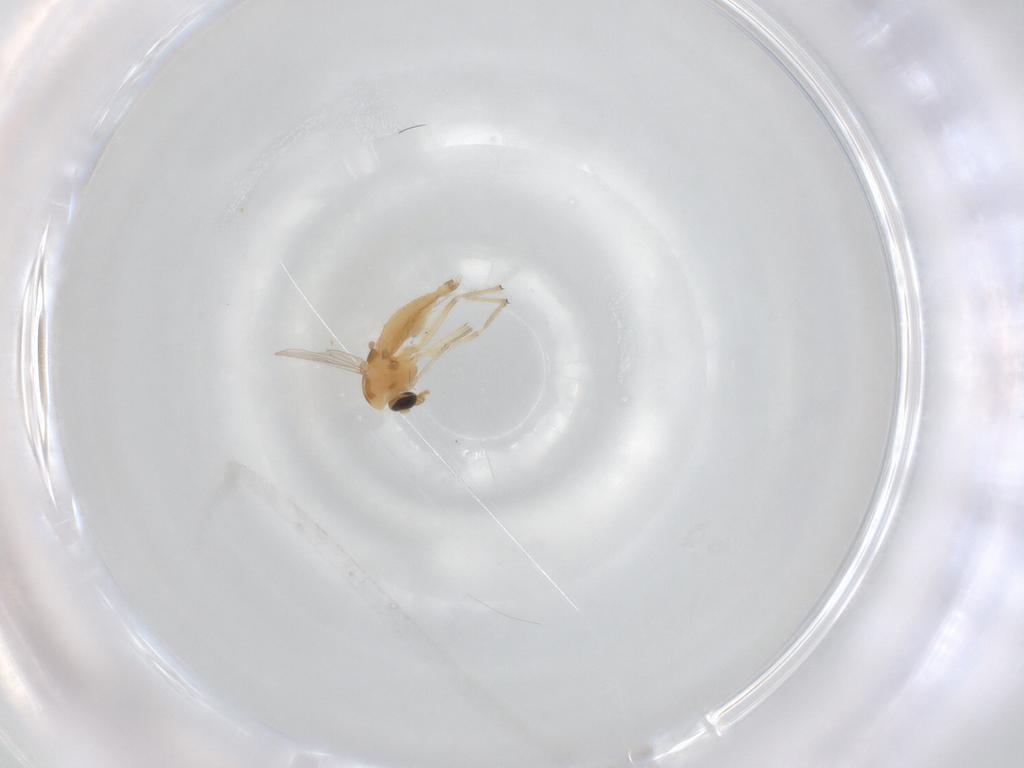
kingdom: Animalia
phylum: Arthropoda
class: Insecta
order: Diptera
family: Chironomidae
